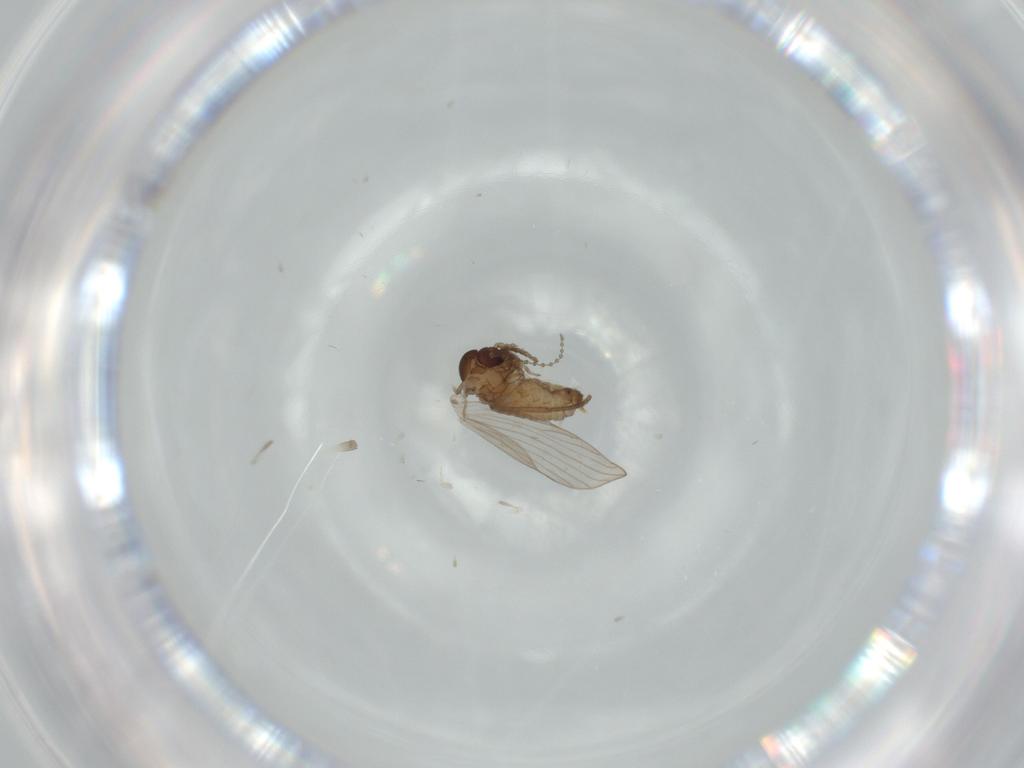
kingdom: Animalia
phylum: Arthropoda
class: Insecta
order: Diptera
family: Psychodidae
